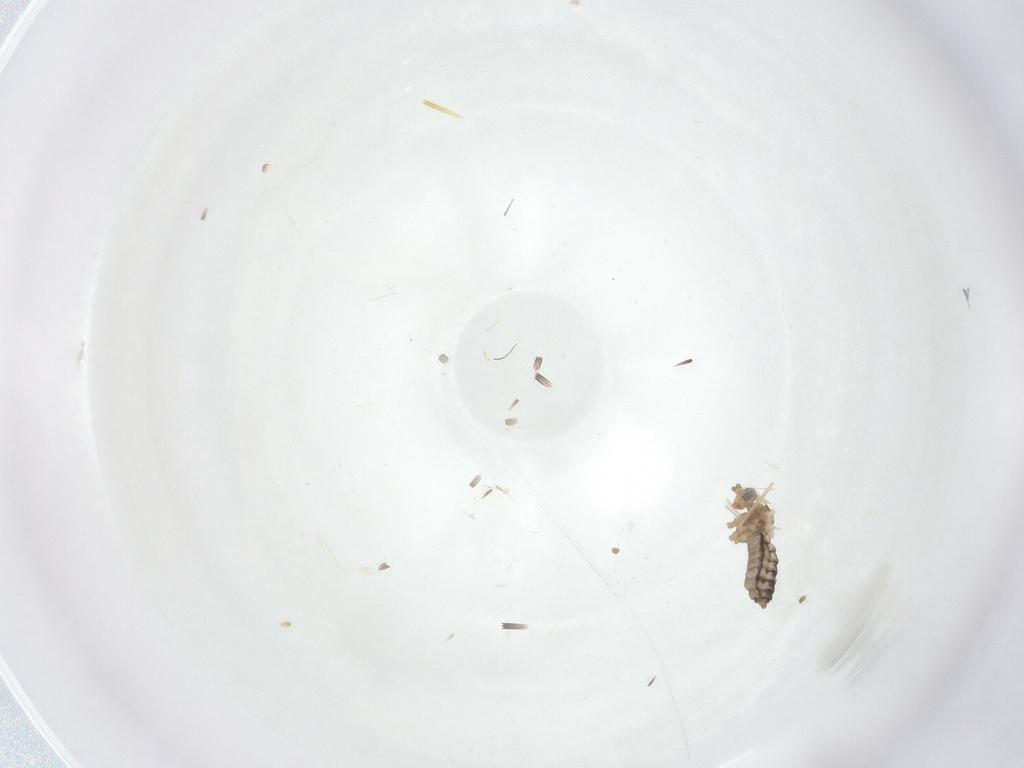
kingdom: Animalia
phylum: Arthropoda
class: Insecta
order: Diptera
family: Cecidomyiidae
